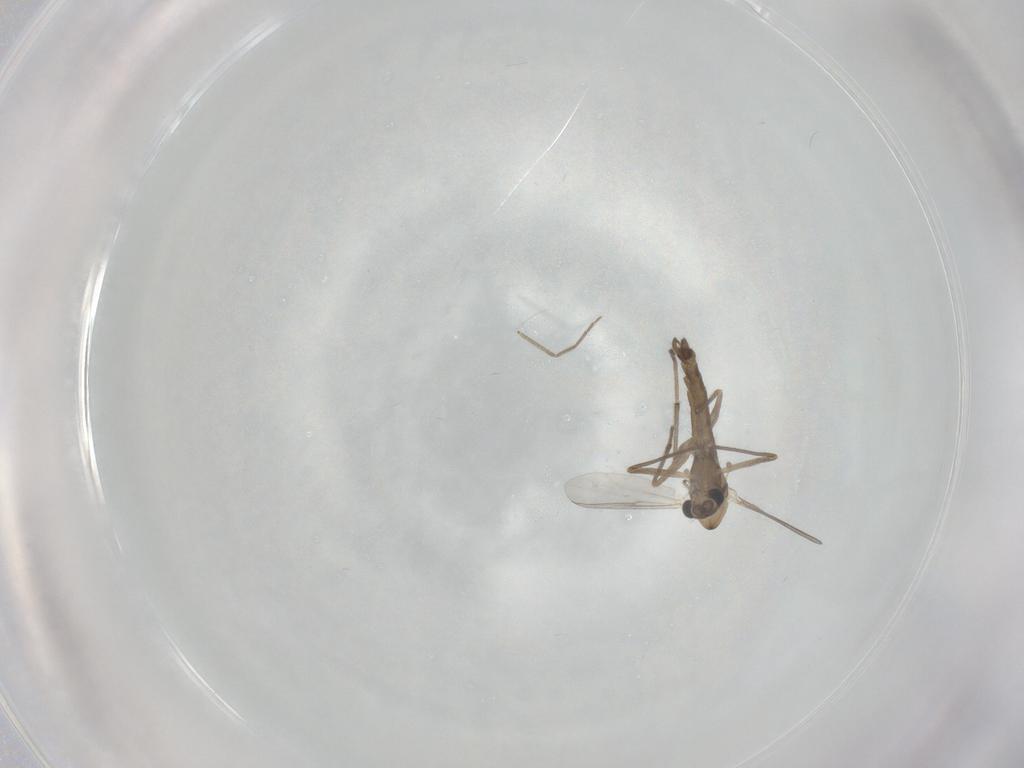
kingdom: Animalia
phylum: Arthropoda
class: Insecta
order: Diptera
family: Chironomidae
